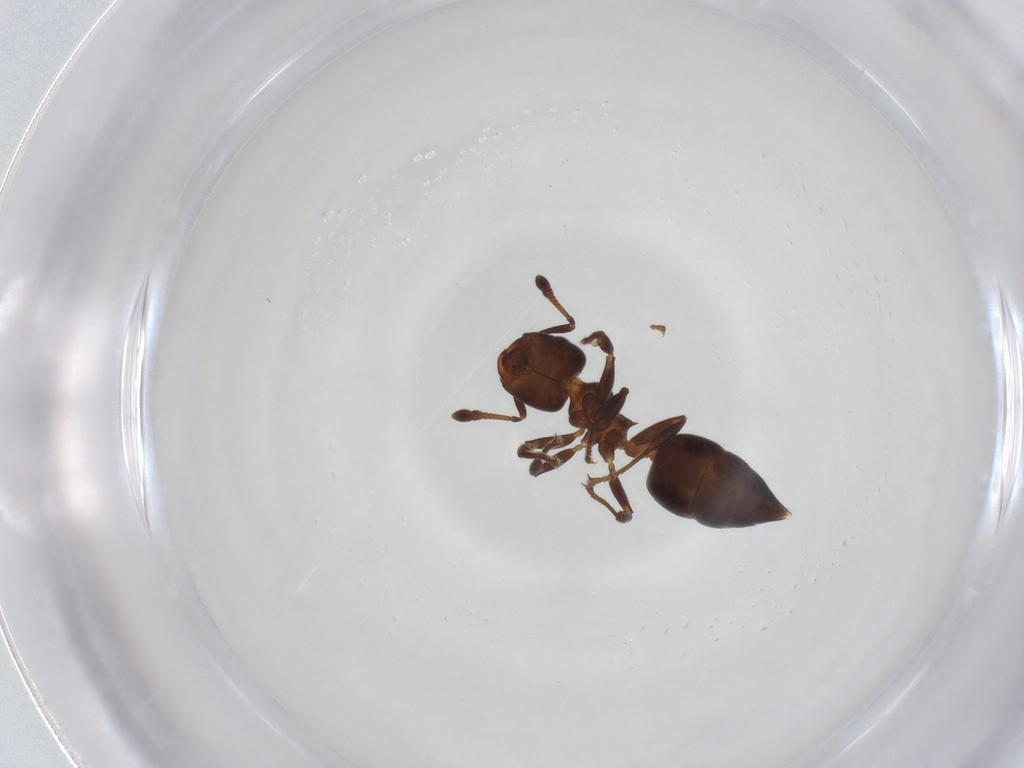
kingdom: Animalia
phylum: Arthropoda
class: Insecta
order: Hymenoptera
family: Formicidae
